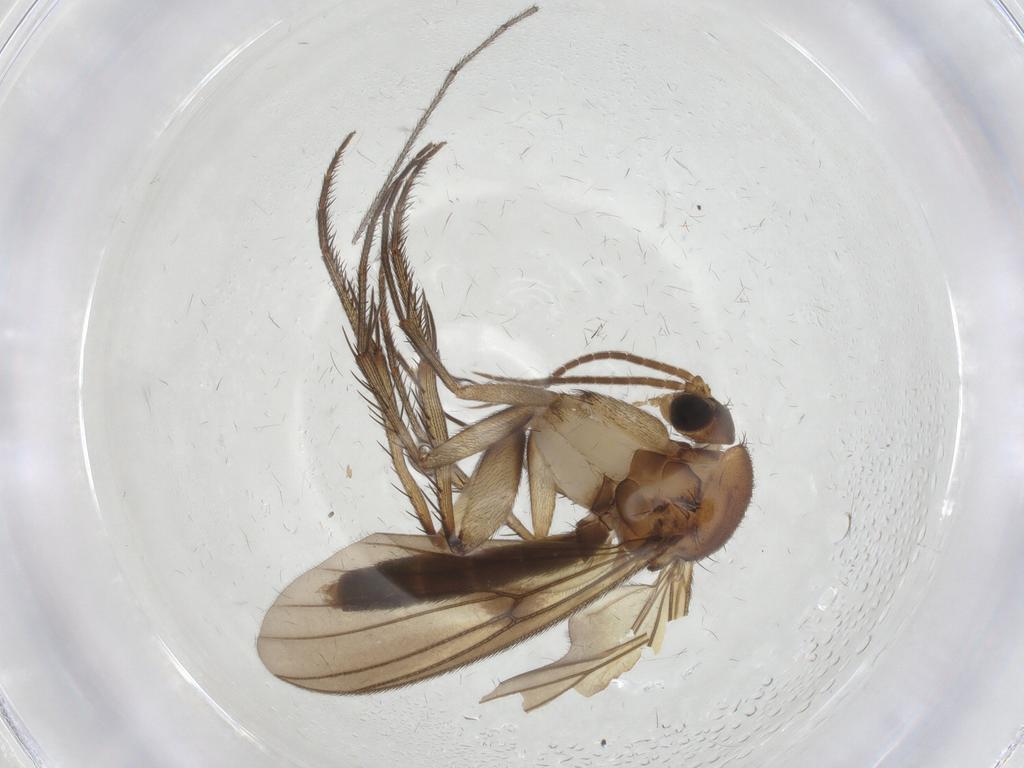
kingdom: Animalia
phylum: Arthropoda
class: Insecta
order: Diptera
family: Mycetophilidae
